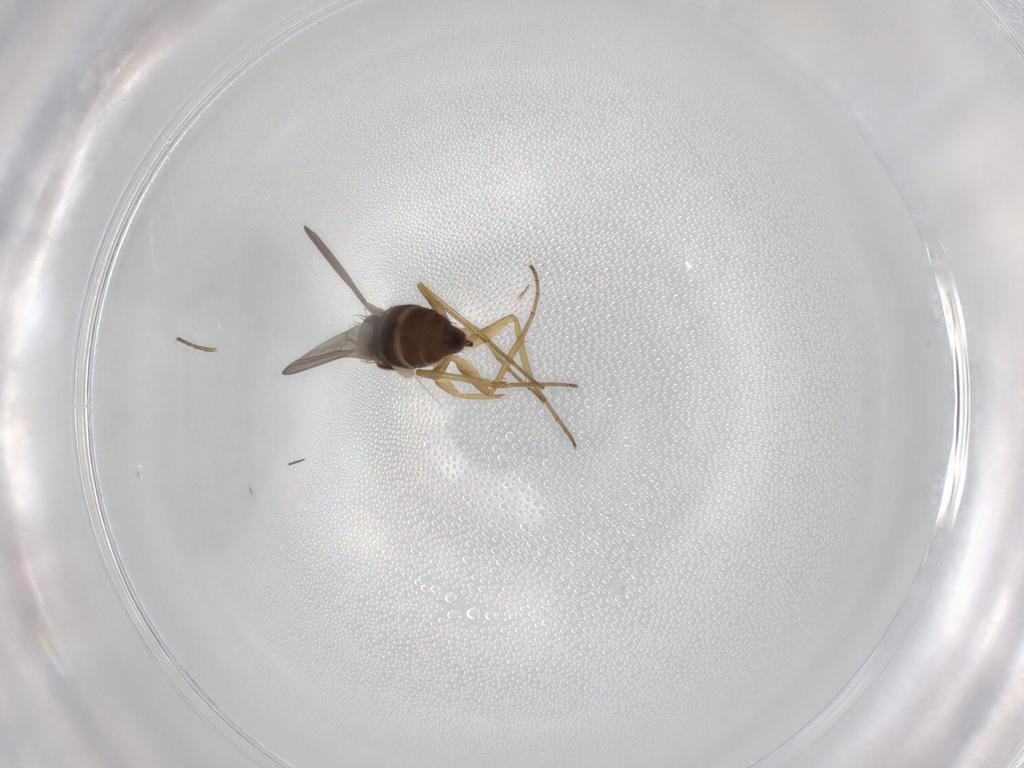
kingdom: Animalia
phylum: Arthropoda
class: Insecta
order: Diptera
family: Dolichopodidae
